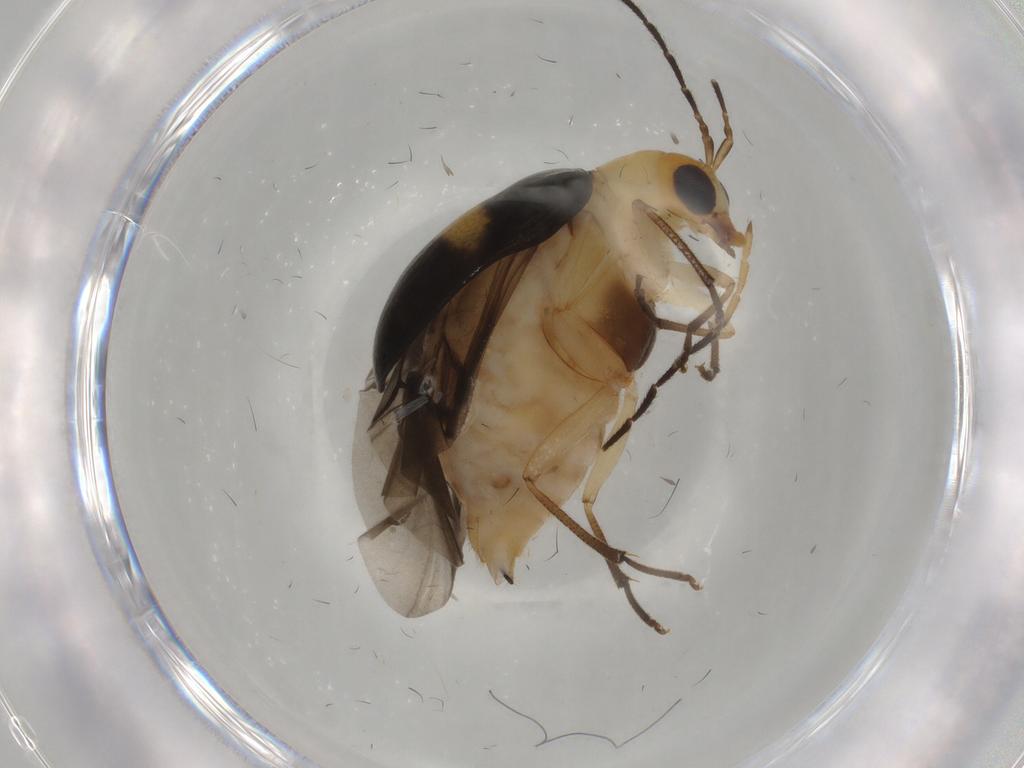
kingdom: Animalia
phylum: Arthropoda
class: Insecta
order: Coleoptera
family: Chrysomelidae
